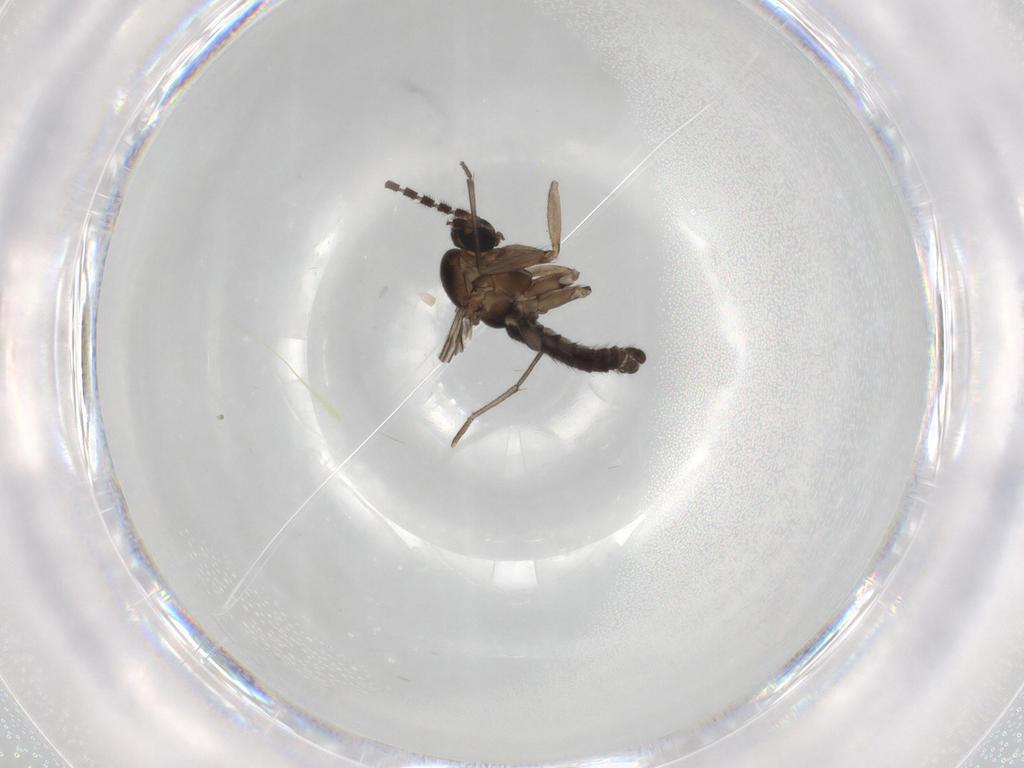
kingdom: Animalia
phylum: Arthropoda
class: Insecta
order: Diptera
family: Sciaridae
